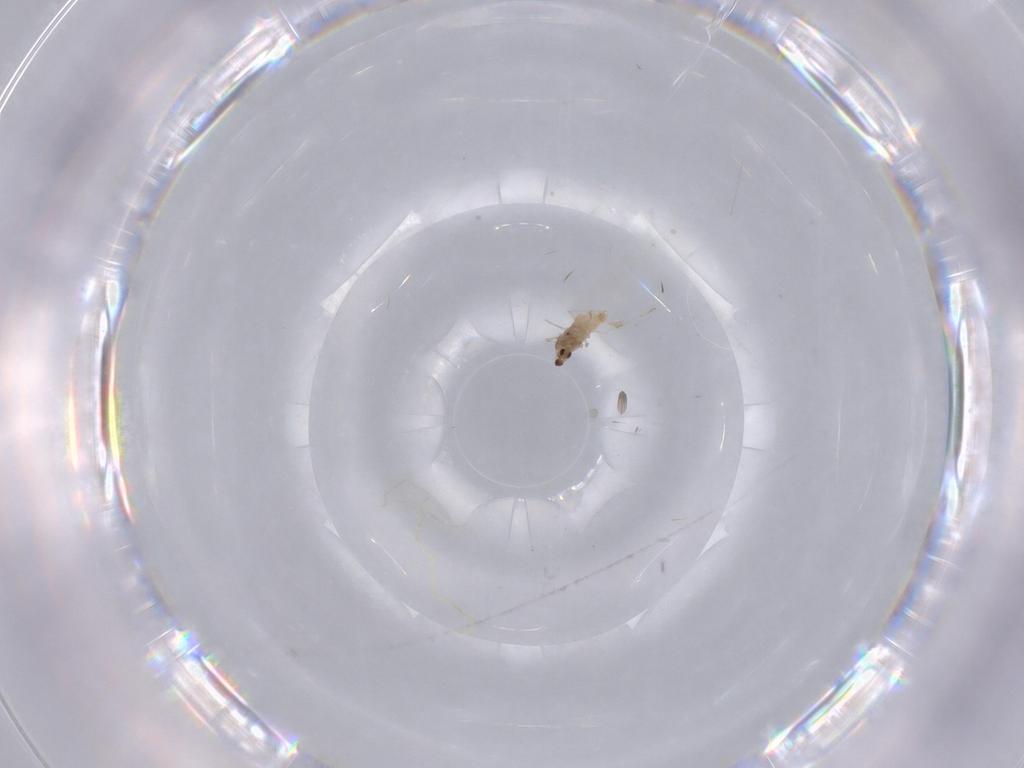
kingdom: Animalia
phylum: Arthropoda
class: Insecta
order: Diptera
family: Cecidomyiidae
